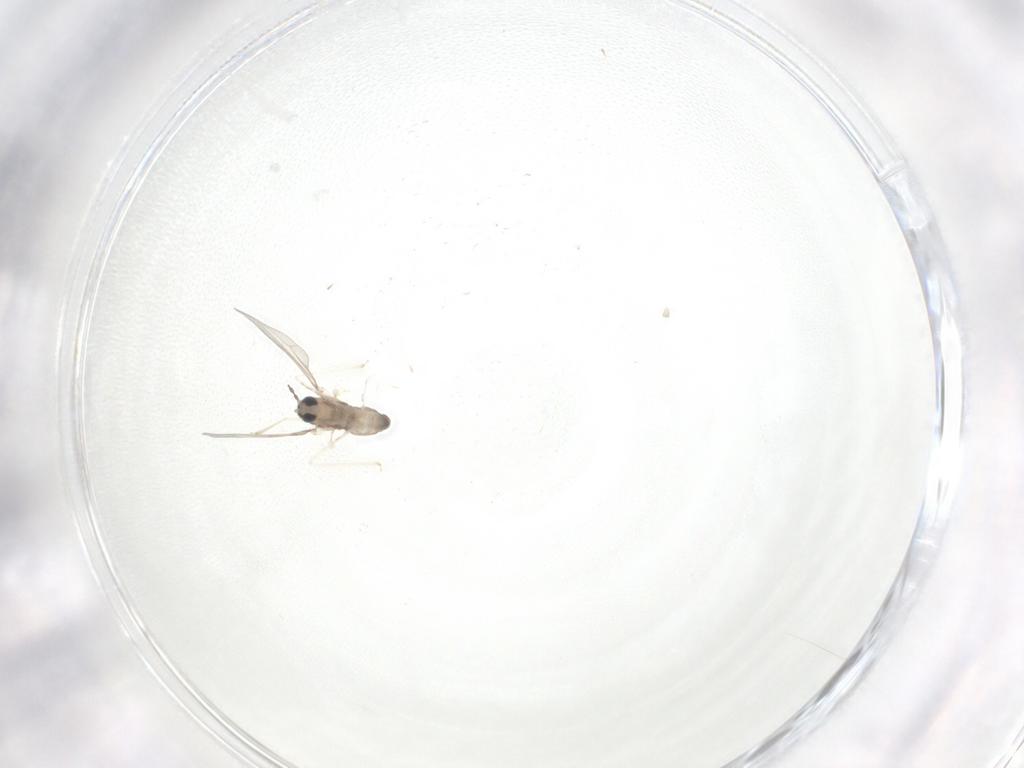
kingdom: Animalia
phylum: Arthropoda
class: Insecta
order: Diptera
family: Cecidomyiidae
